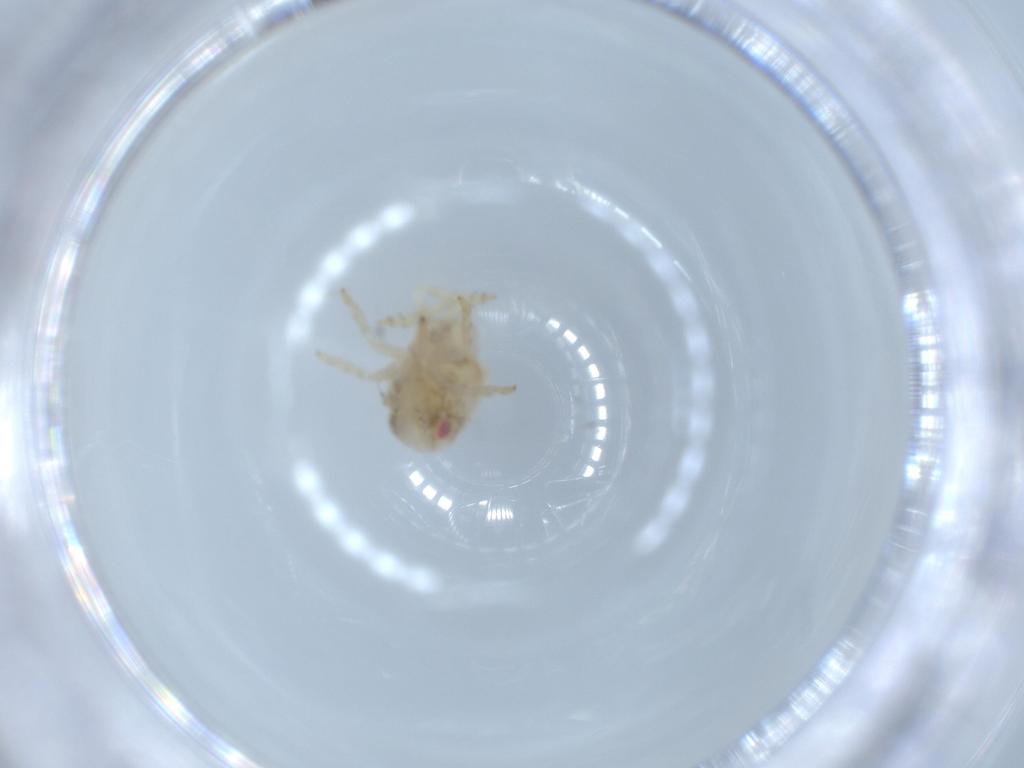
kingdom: Animalia
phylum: Arthropoda
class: Insecta
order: Hemiptera
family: Acanaloniidae
